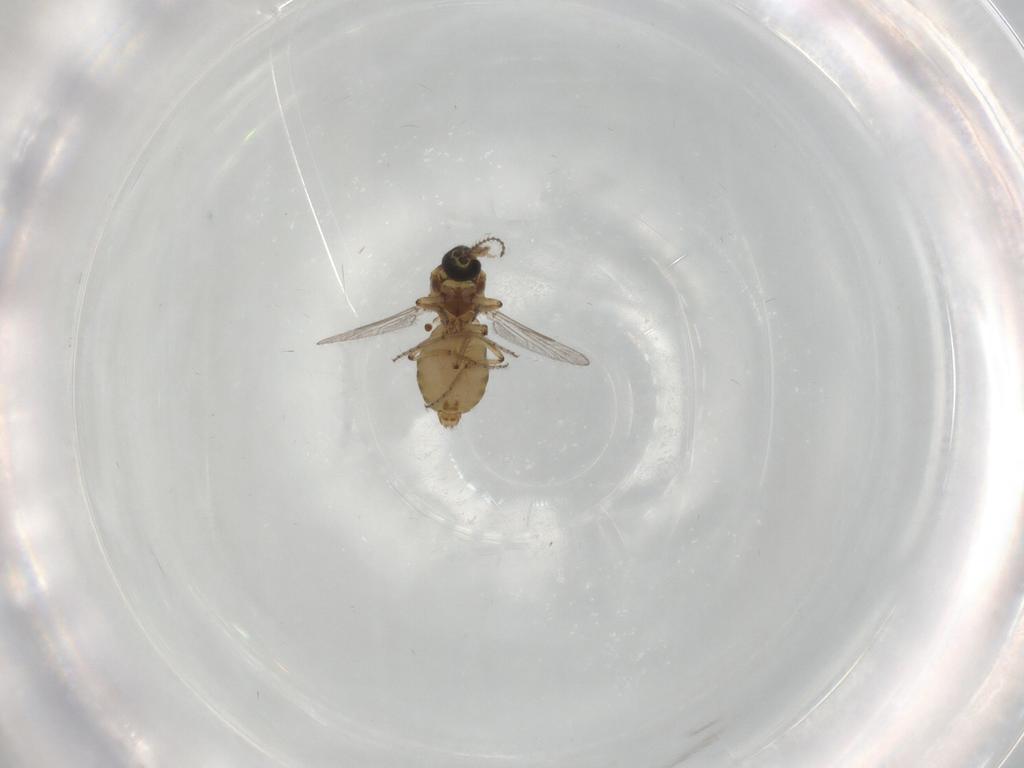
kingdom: Animalia
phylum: Arthropoda
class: Insecta
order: Diptera
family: Ceratopogonidae
